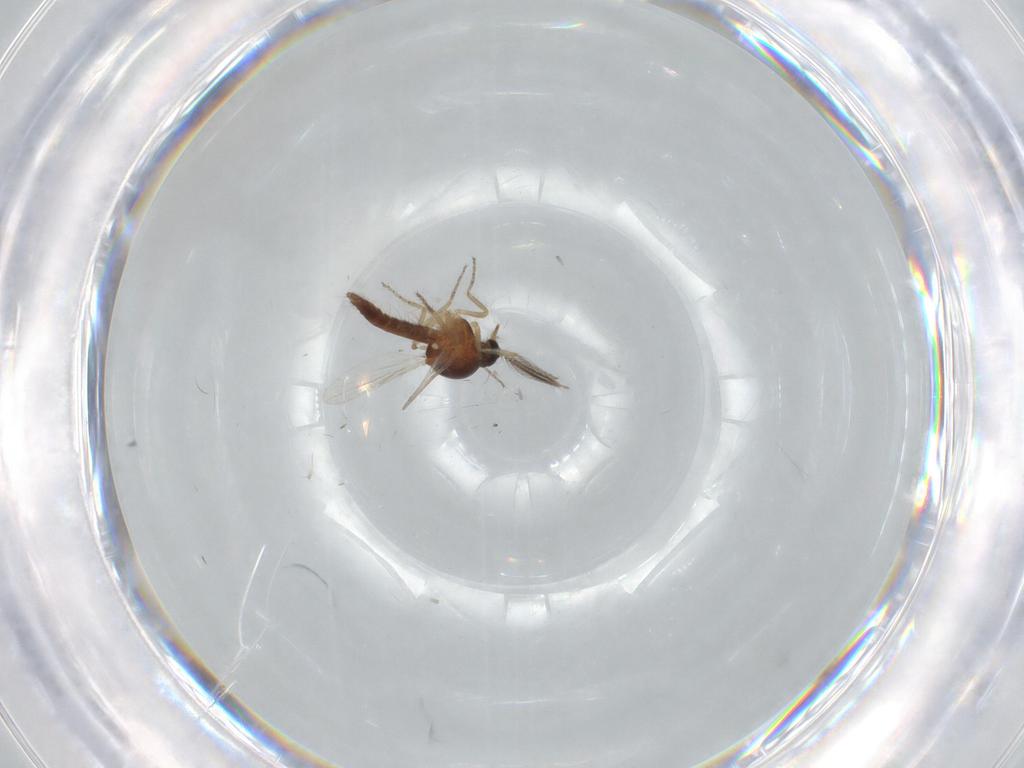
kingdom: Animalia
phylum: Arthropoda
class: Insecta
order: Diptera
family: Ceratopogonidae
